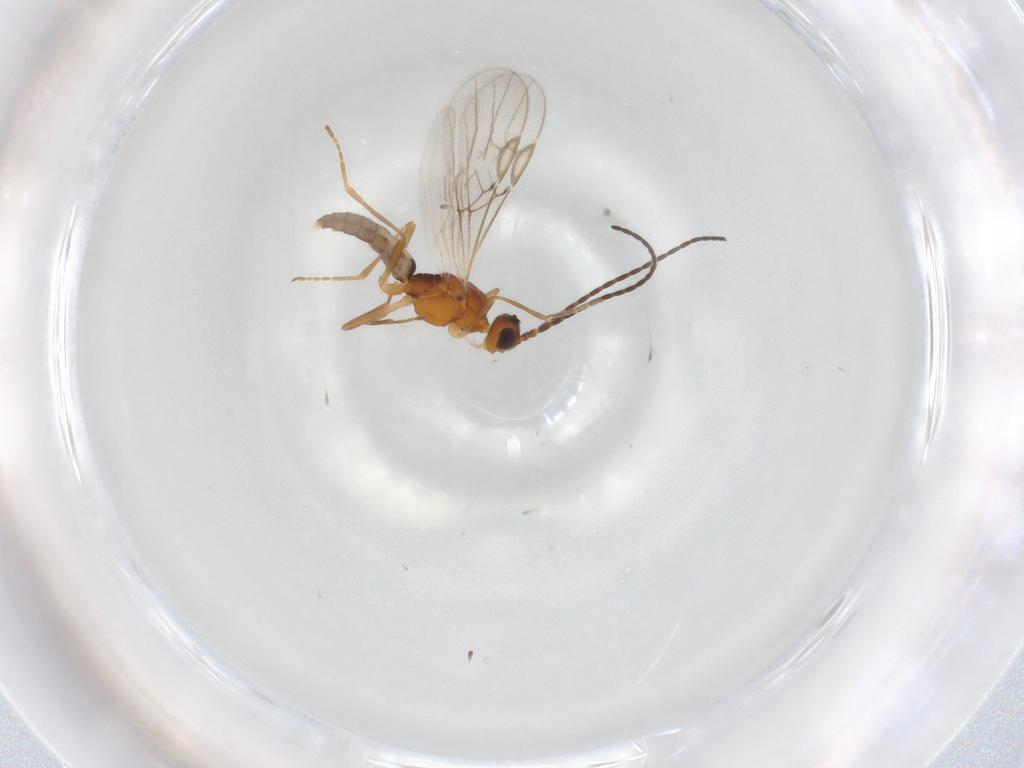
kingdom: Animalia
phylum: Arthropoda
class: Insecta
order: Hymenoptera
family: Braconidae
